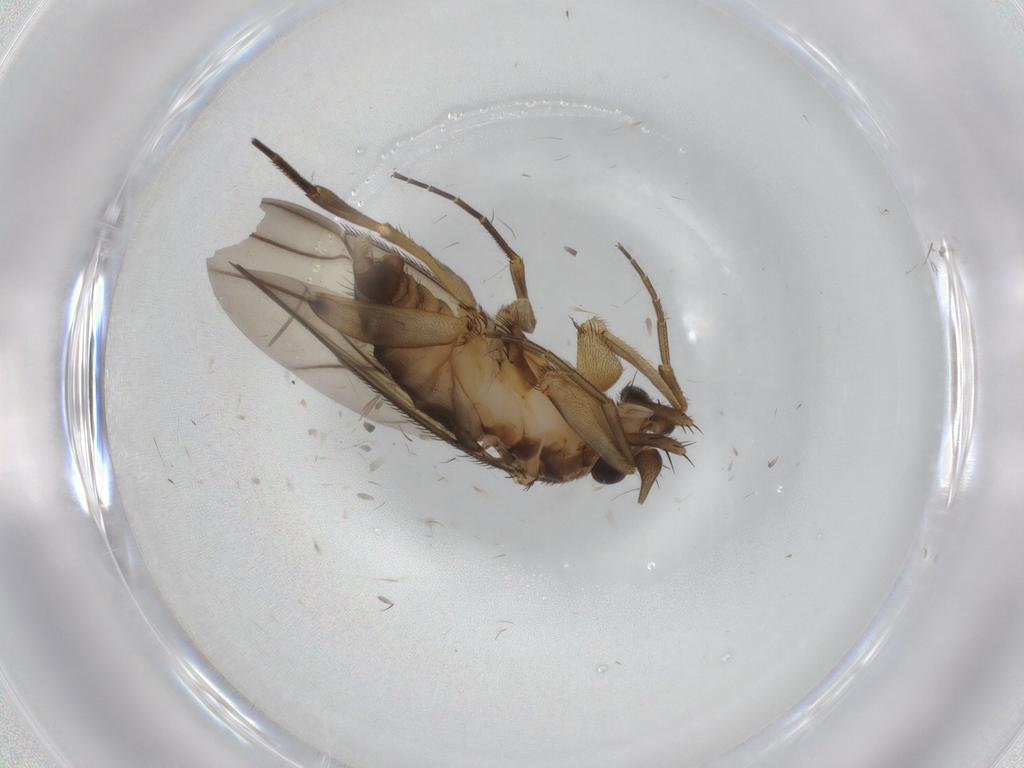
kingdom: Animalia
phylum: Arthropoda
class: Insecta
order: Diptera
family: Phoridae
